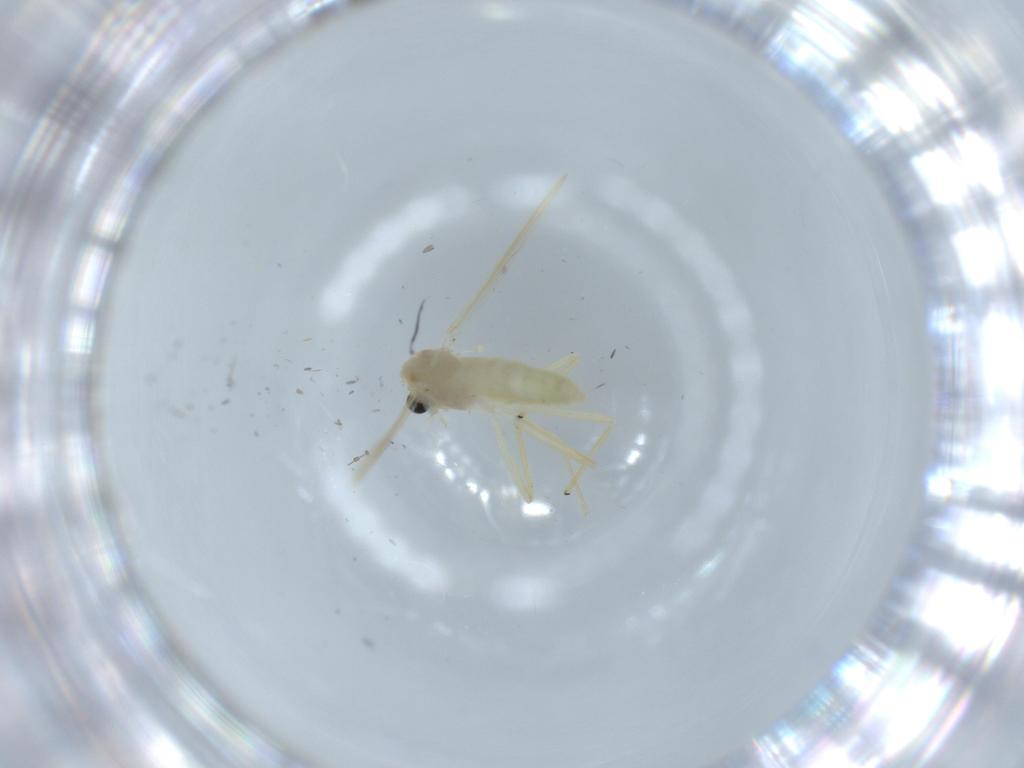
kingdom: Animalia
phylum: Arthropoda
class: Insecta
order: Diptera
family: Chironomidae
